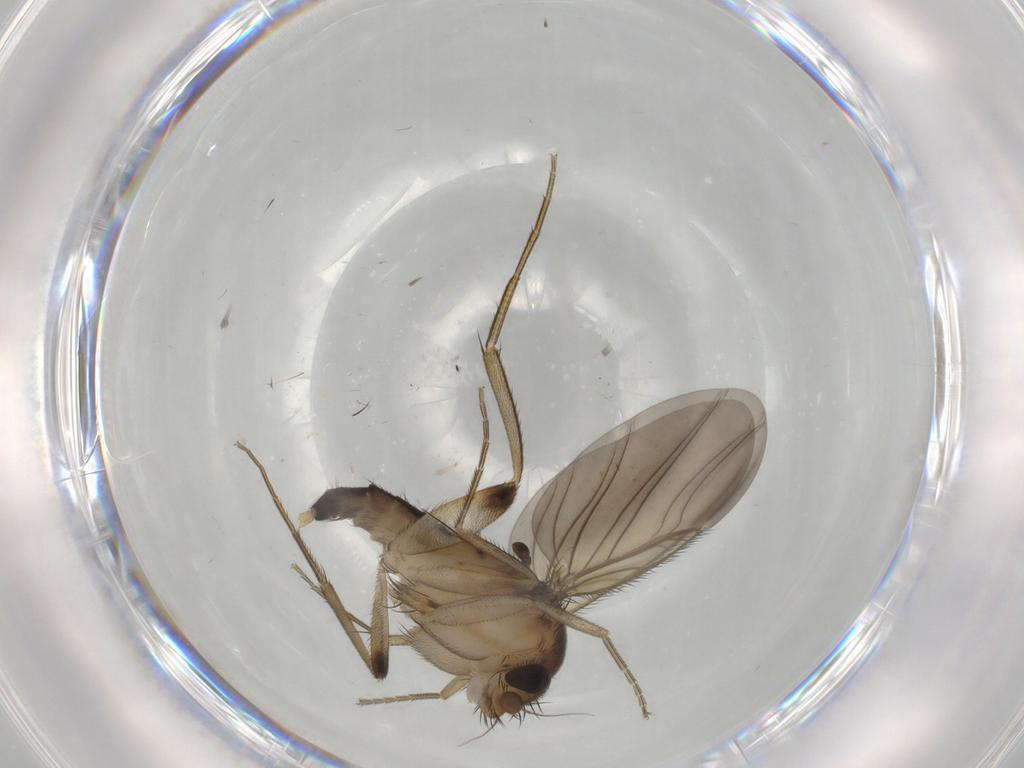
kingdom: Animalia
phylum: Arthropoda
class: Insecta
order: Diptera
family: Phoridae
